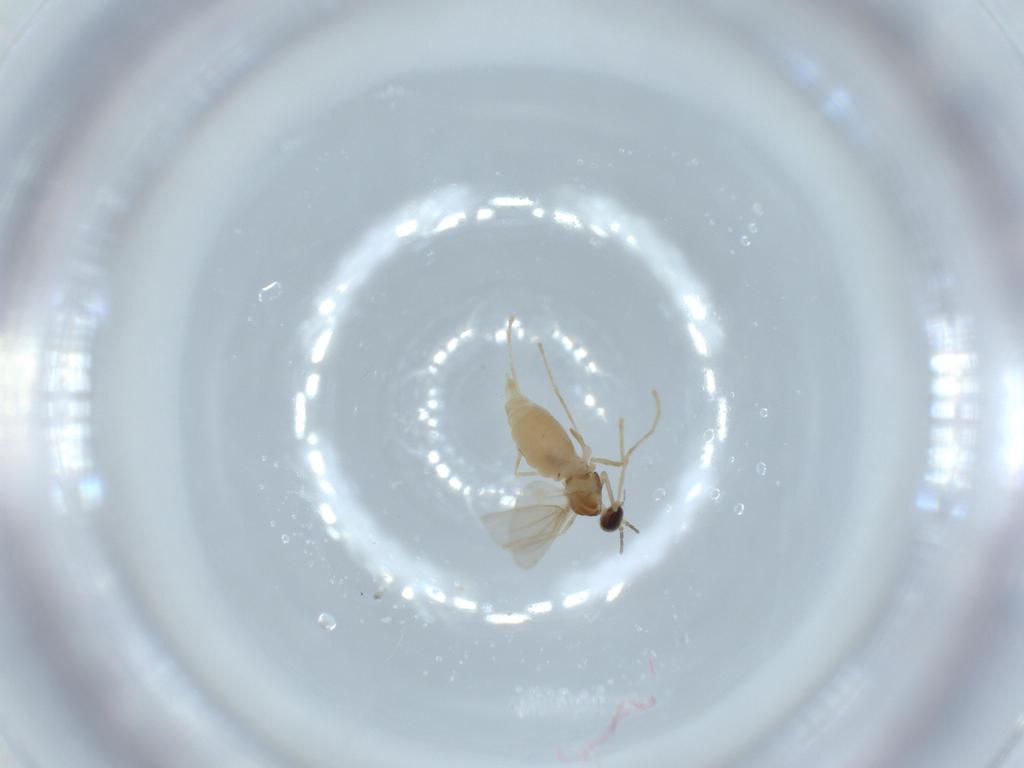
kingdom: Animalia
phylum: Arthropoda
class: Insecta
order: Diptera
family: Cecidomyiidae
